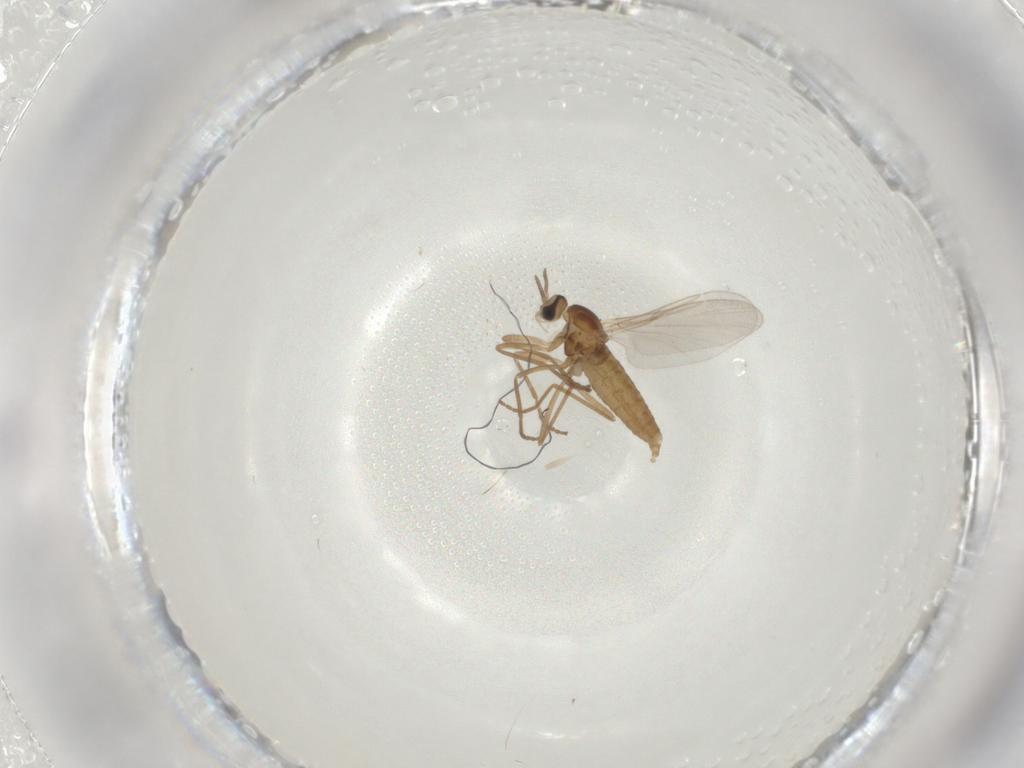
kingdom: Animalia
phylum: Arthropoda
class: Insecta
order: Diptera
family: Cecidomyiidae
